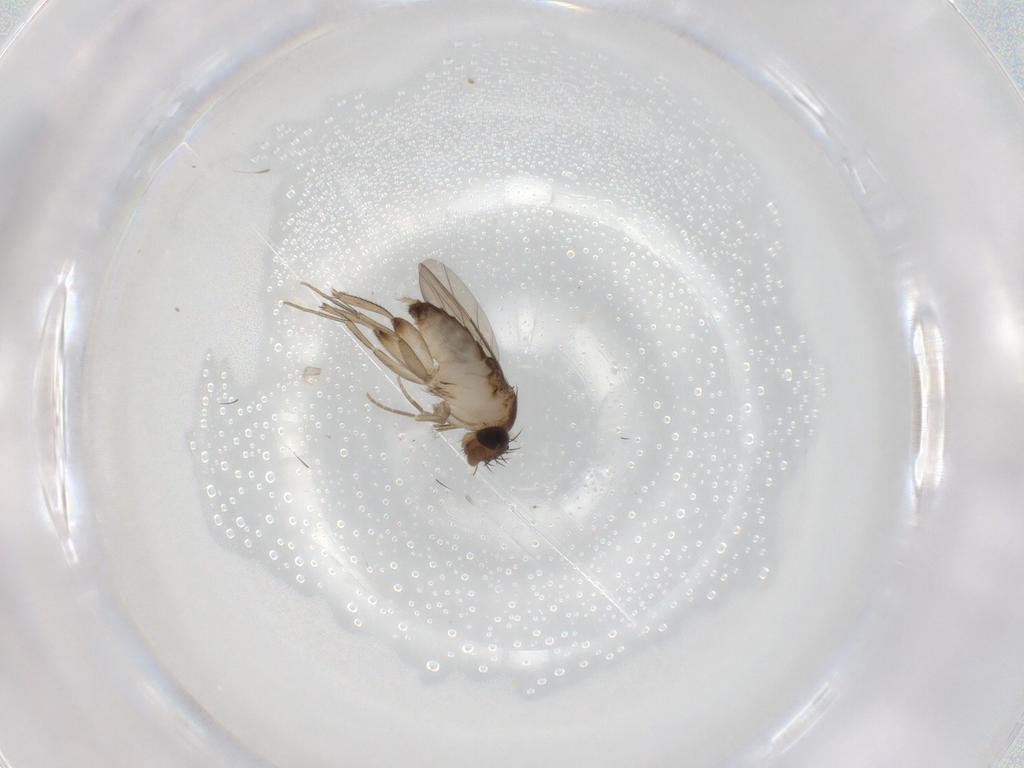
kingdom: Animalia
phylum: Arthropoda
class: Insecta
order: Diptera
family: Phoridae
